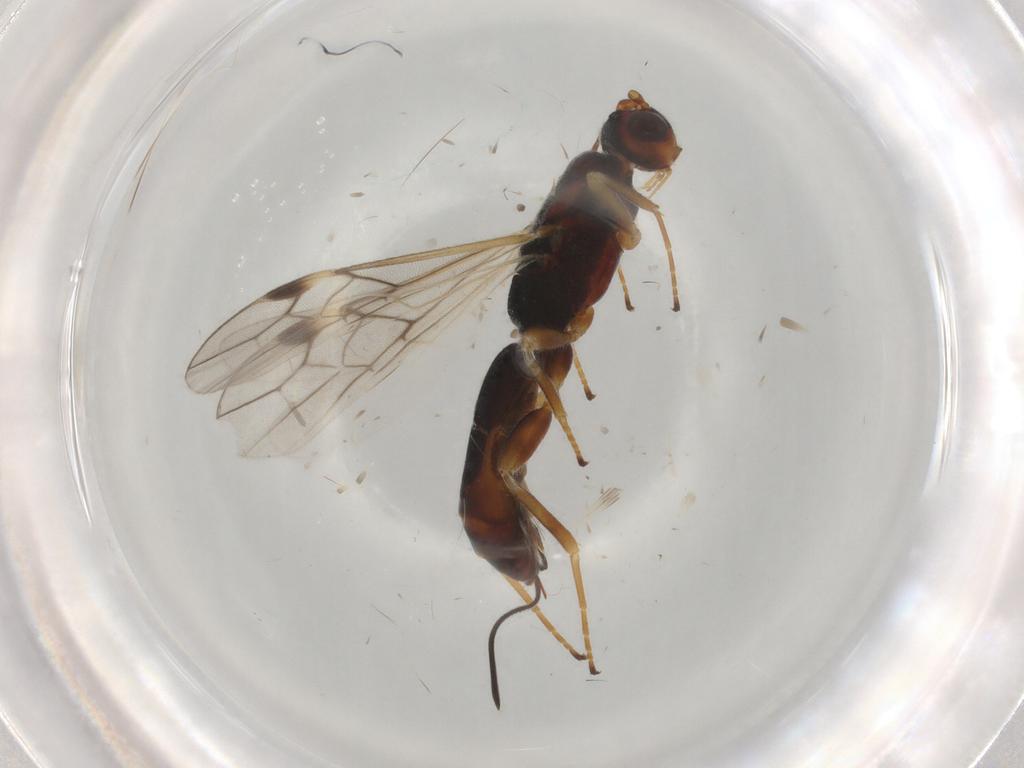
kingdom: Animalia
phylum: Arthropoda
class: Insecta
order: Hymenoptera
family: Braconidae
